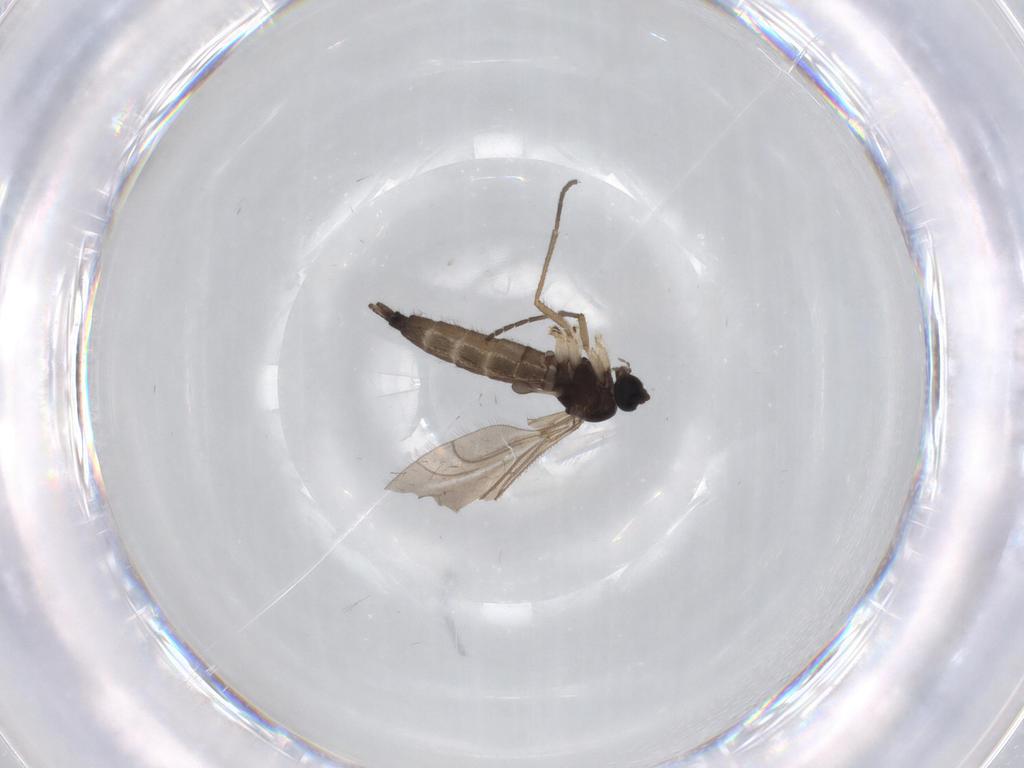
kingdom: Animalia
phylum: Arthropoda
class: Insecta
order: Diptera
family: Sciaridae
